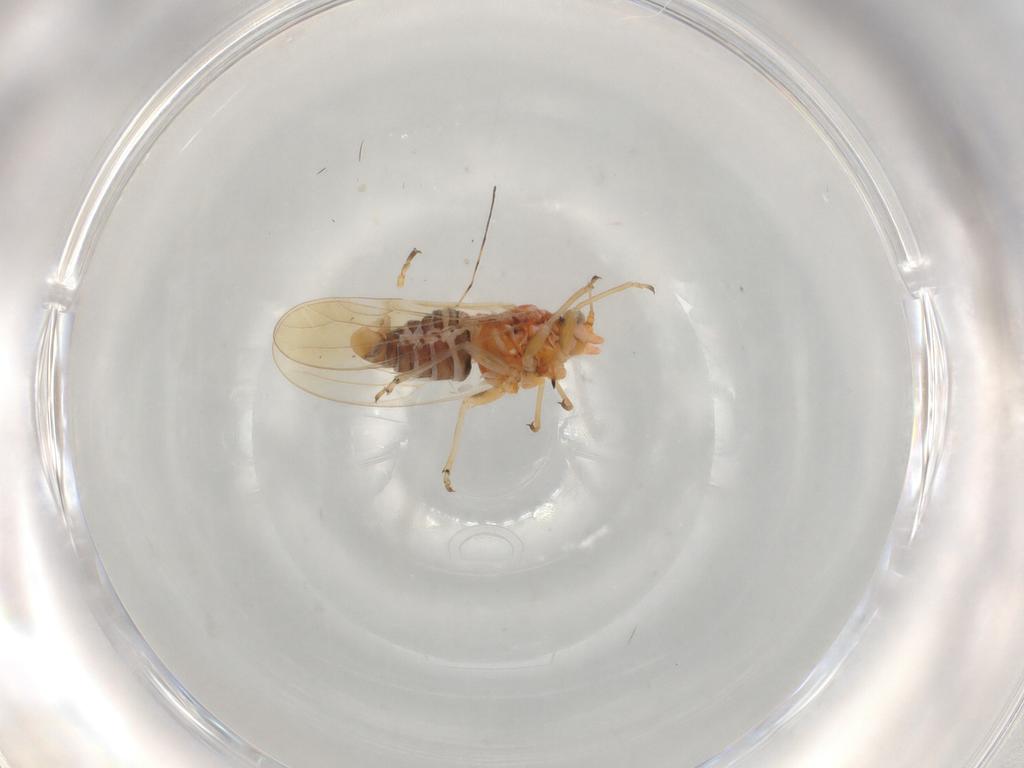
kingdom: Animalia
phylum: Arthropoda
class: Insecta
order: Hemiptera
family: Psyllidae
